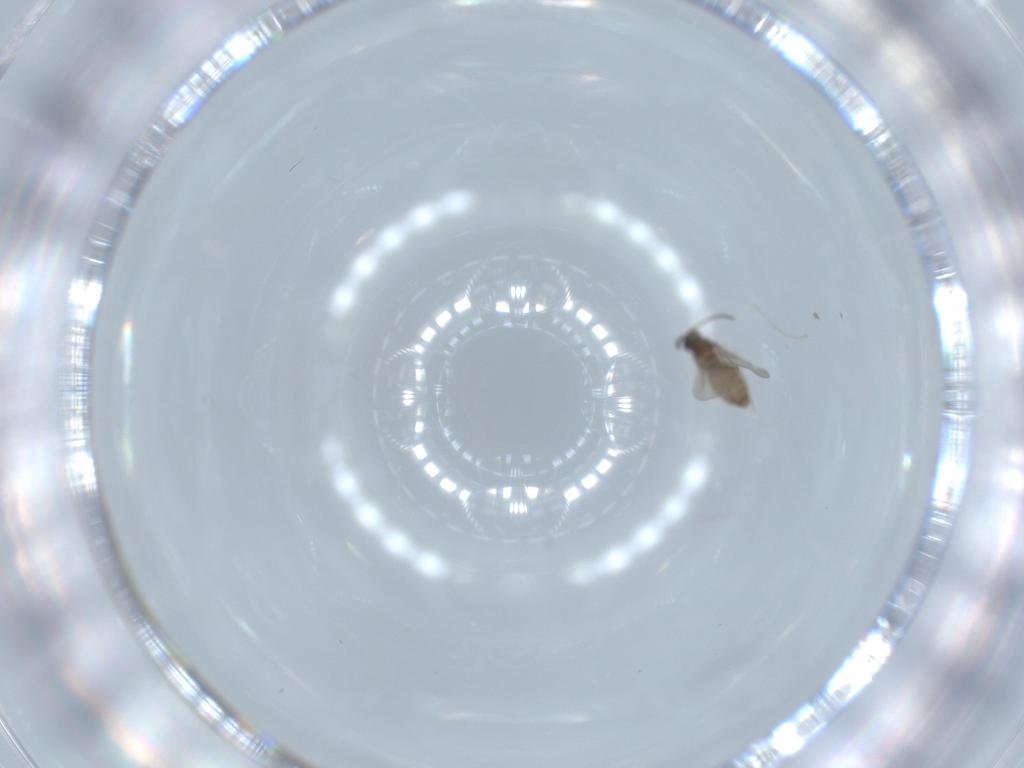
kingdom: Animalia
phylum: Arthropoda
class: Insecta
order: Diptera
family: Cecidomyiidae
